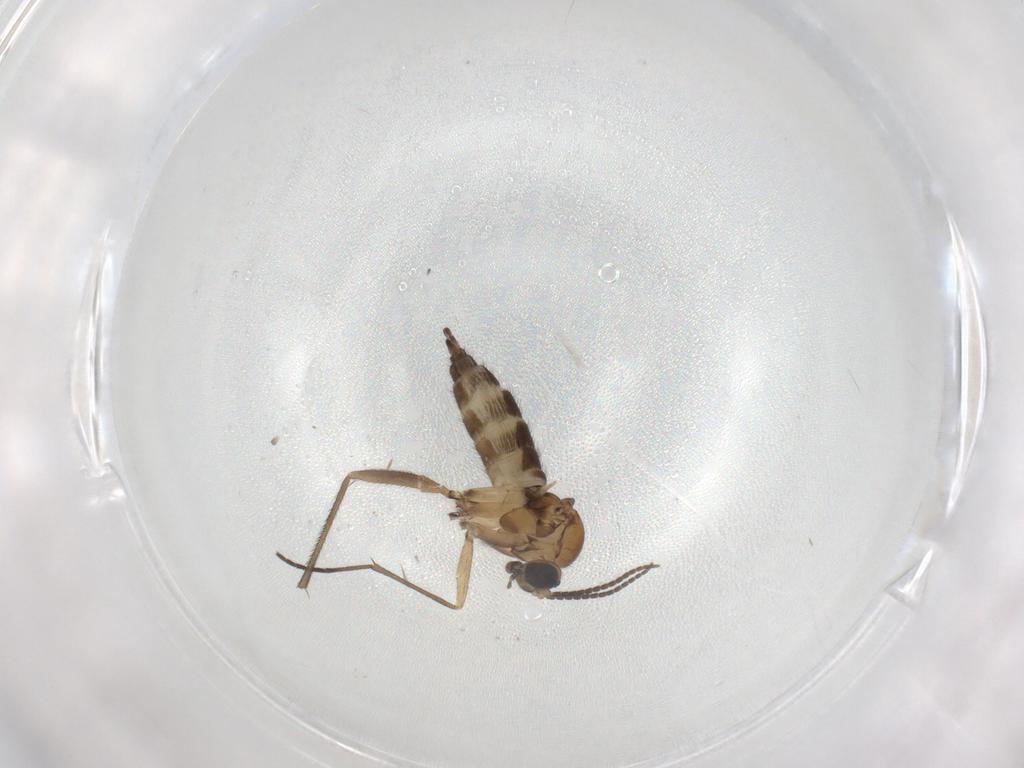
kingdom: Animalia
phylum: Arthropoda
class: Insecta
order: Diptera
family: Sciaridae
